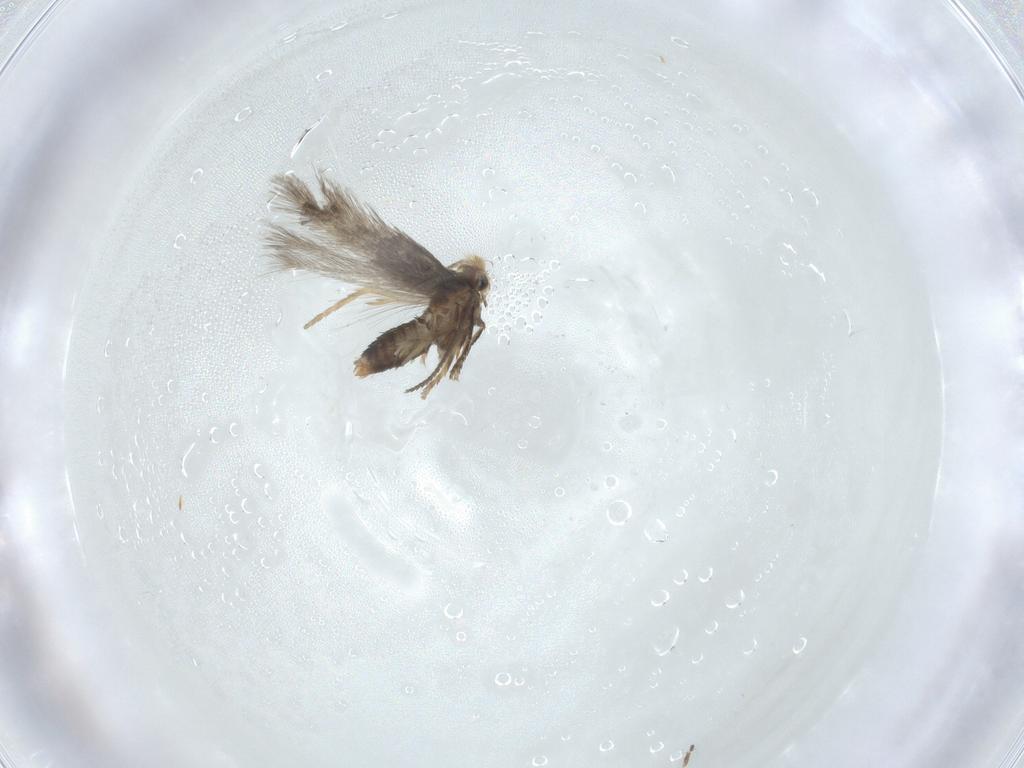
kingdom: Animalia
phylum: Arthropoda
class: Insecta
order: Lepidoptera
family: Nepticulidae
